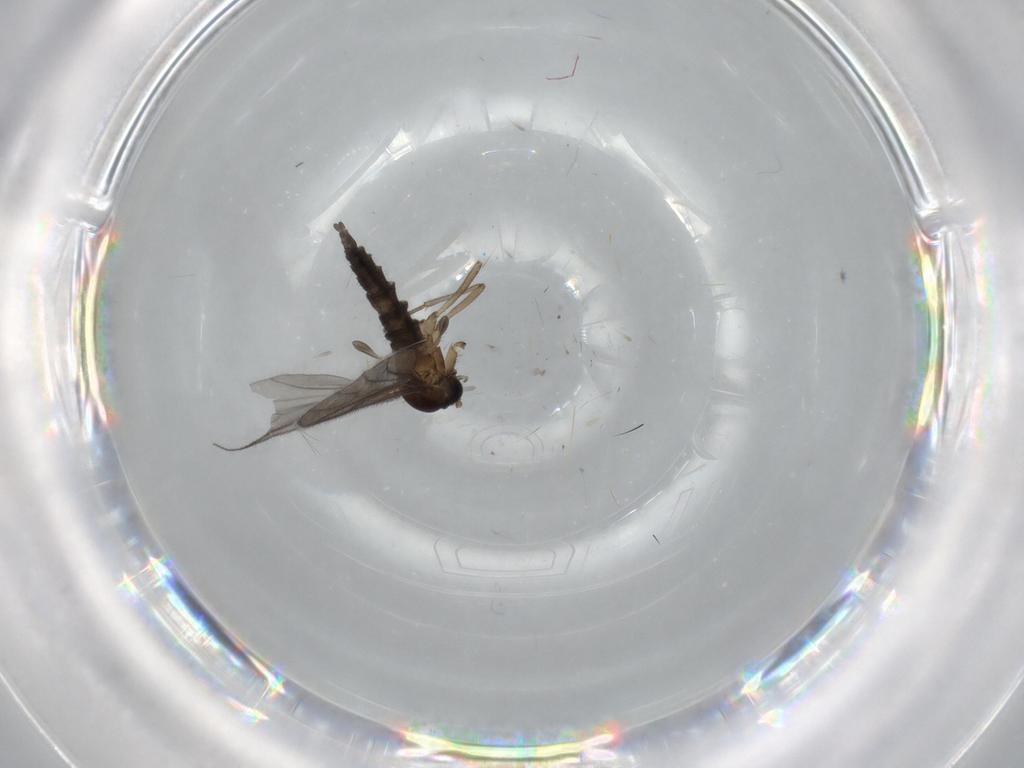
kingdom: Animalia
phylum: Arthropoda
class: Insecta
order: Diptera
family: Sciaridae
